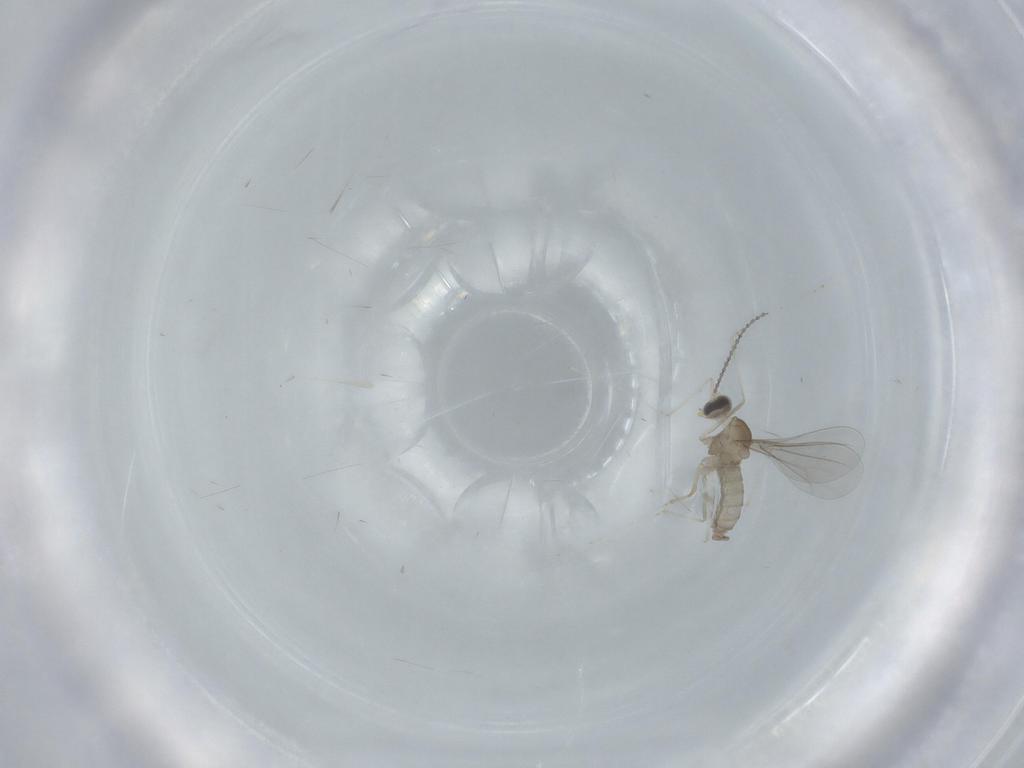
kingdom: Animalia
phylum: Arthropoda
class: Insecta
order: Diptera
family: Cecidomyiidae
